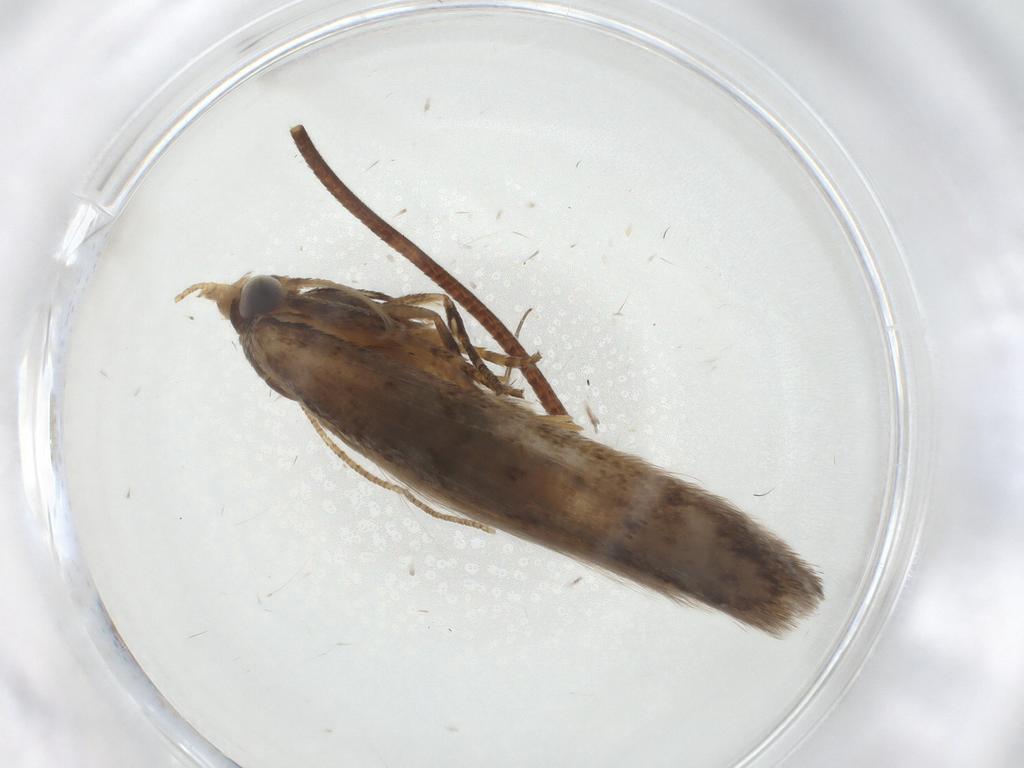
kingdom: Animalia
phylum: Arthropoda
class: Insecta
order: Lepidoptera
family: Blastobasidae
